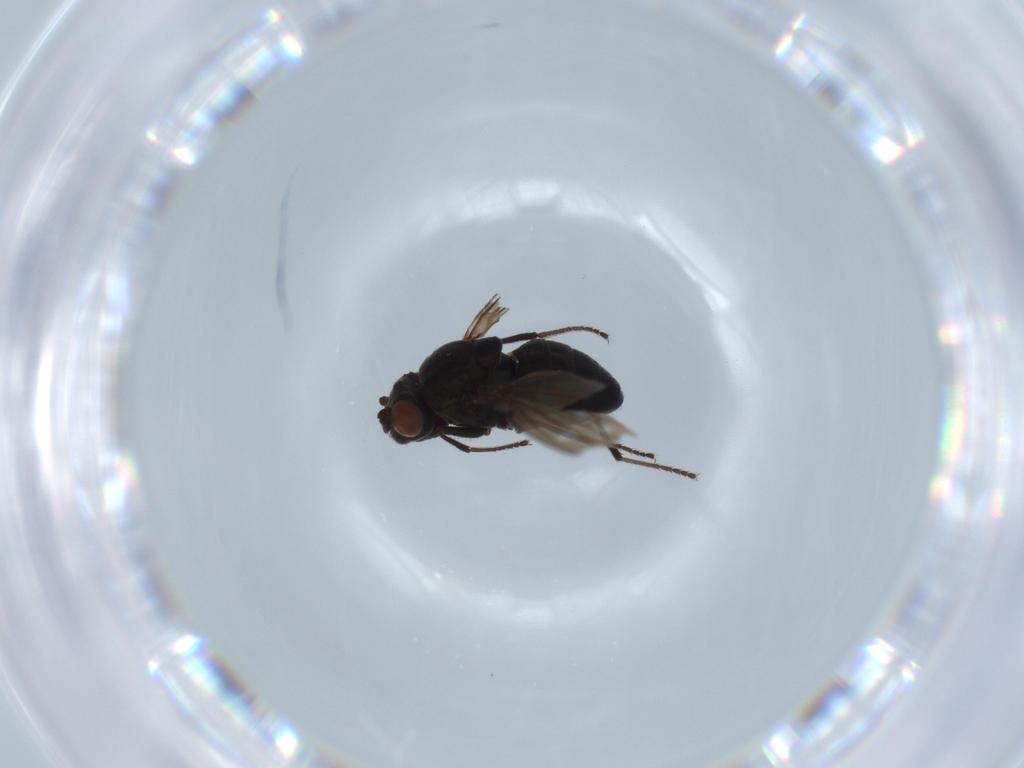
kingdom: Animalia
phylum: Arthropoda
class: Insecta
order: Diptera
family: Ephydridae
